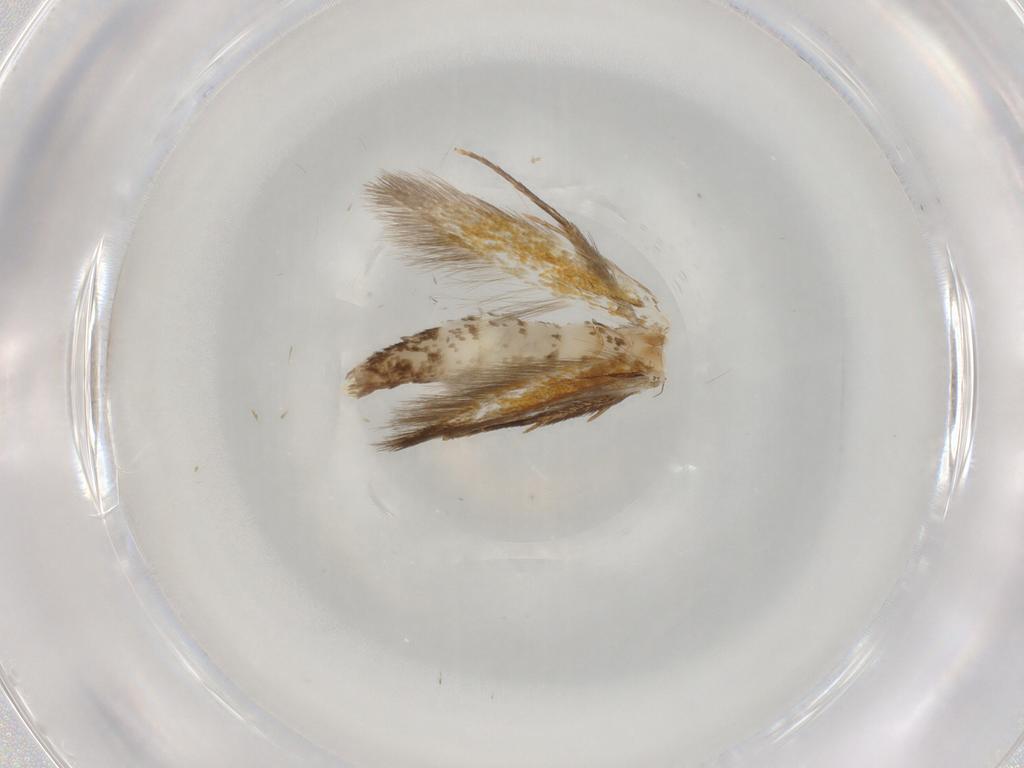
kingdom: Animalia
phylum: Arthropoda
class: Insecta
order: Lepidoptera
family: Tineidae
